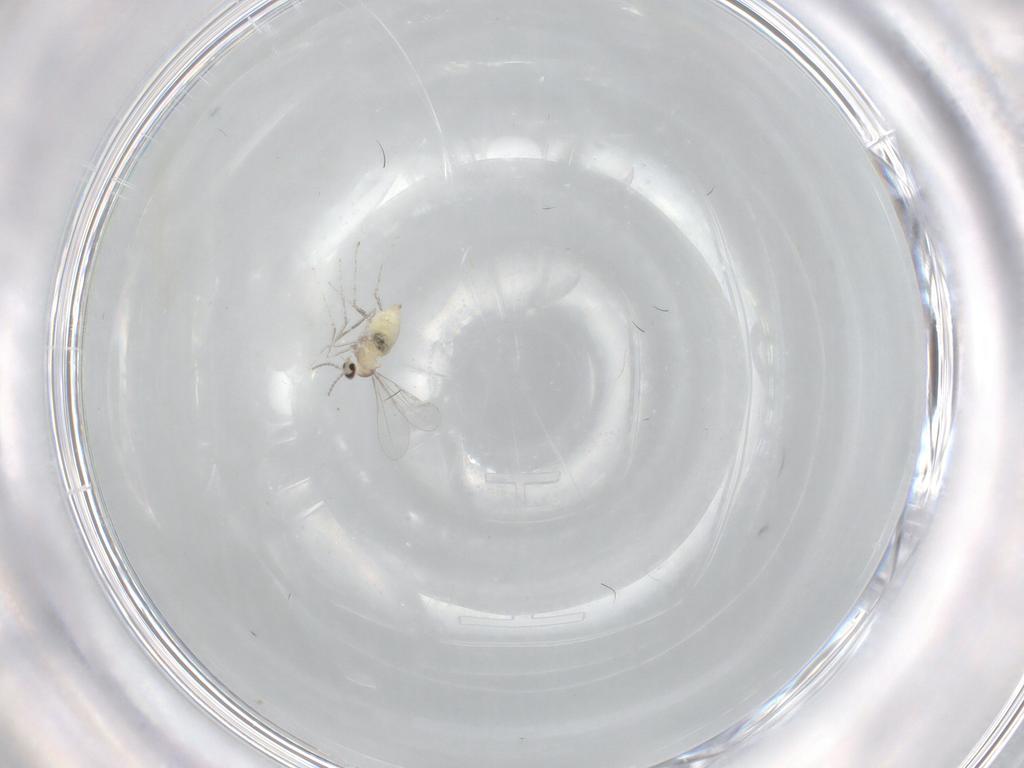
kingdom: Animalia
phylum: Arthropoda
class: Insecta
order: Diptera
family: Cecidomyiidae
